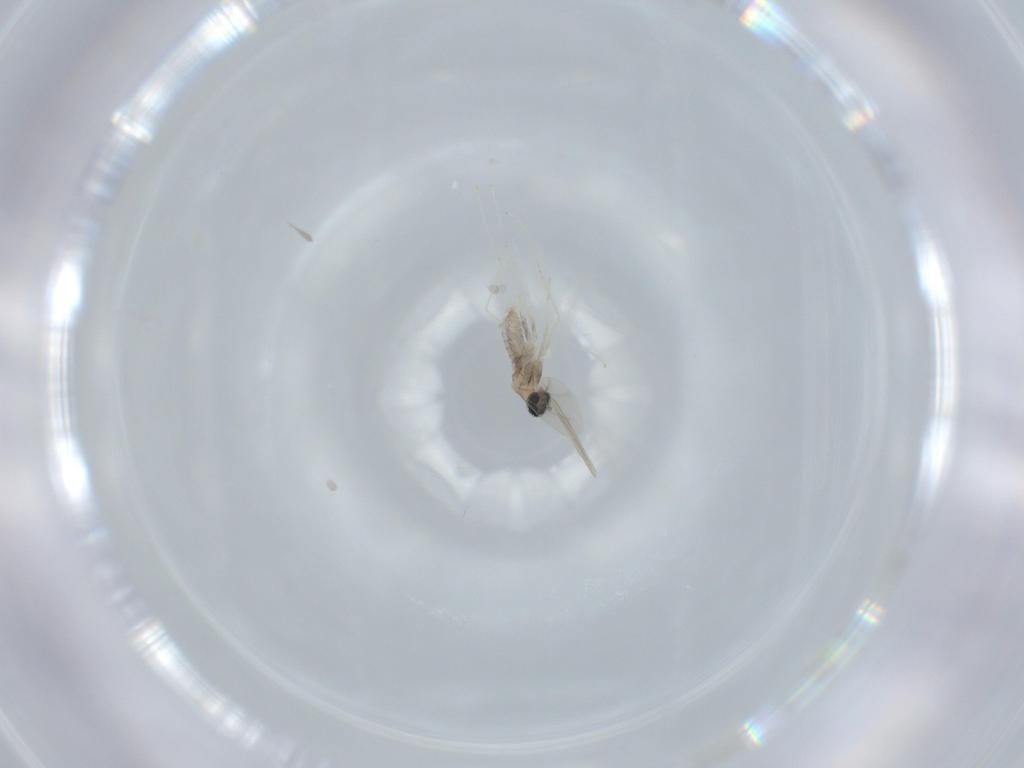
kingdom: Animalia
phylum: Arthropoda
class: Insecta
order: Diptera
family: Cecidomyiidae
